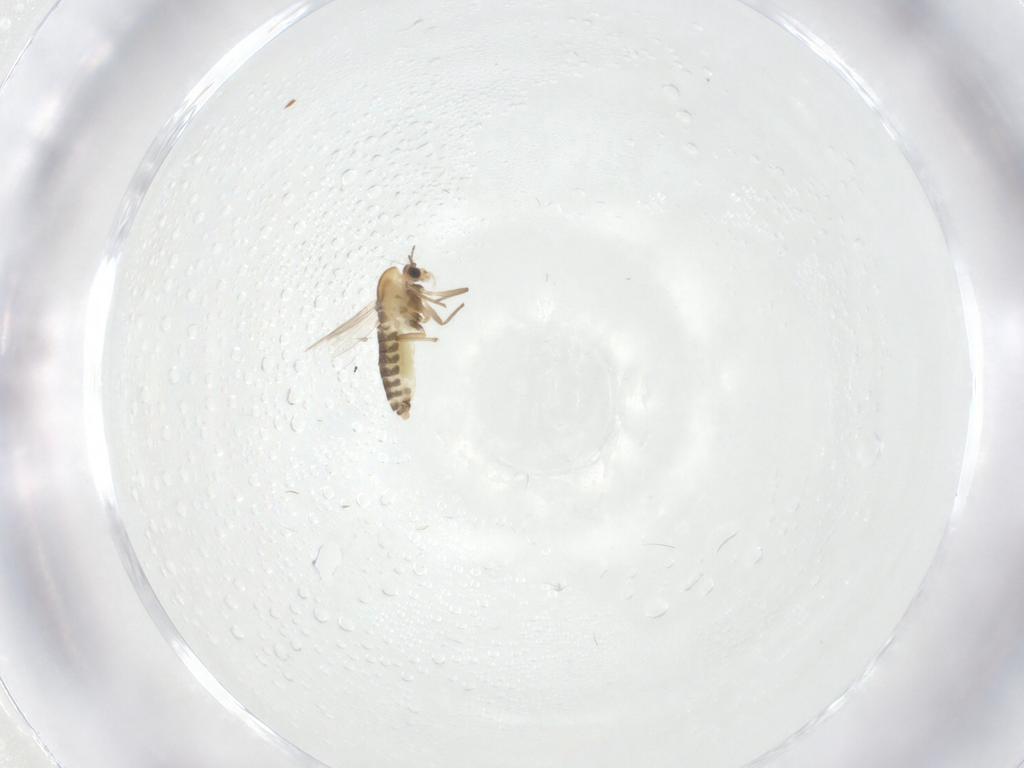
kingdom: Animalia
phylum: Arthropoda
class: Insecta
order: Diptera
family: Chironomidae
